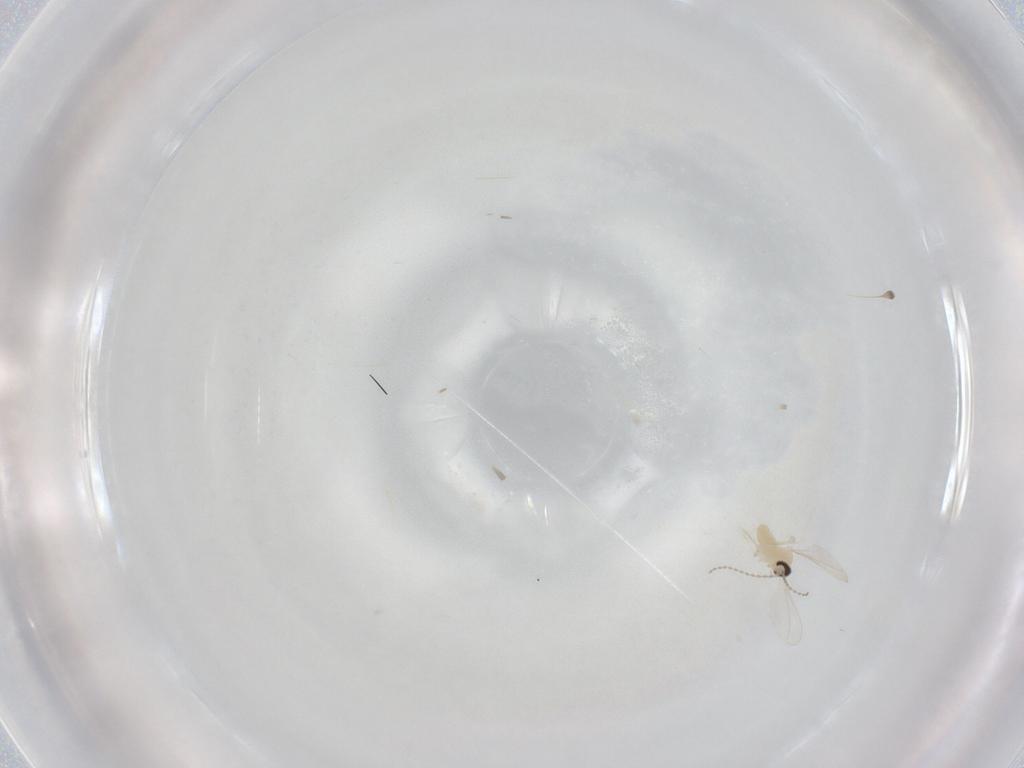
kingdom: Animalia
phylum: Arthropoda
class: Insecta
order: Diptera
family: Cecidomyiidae
